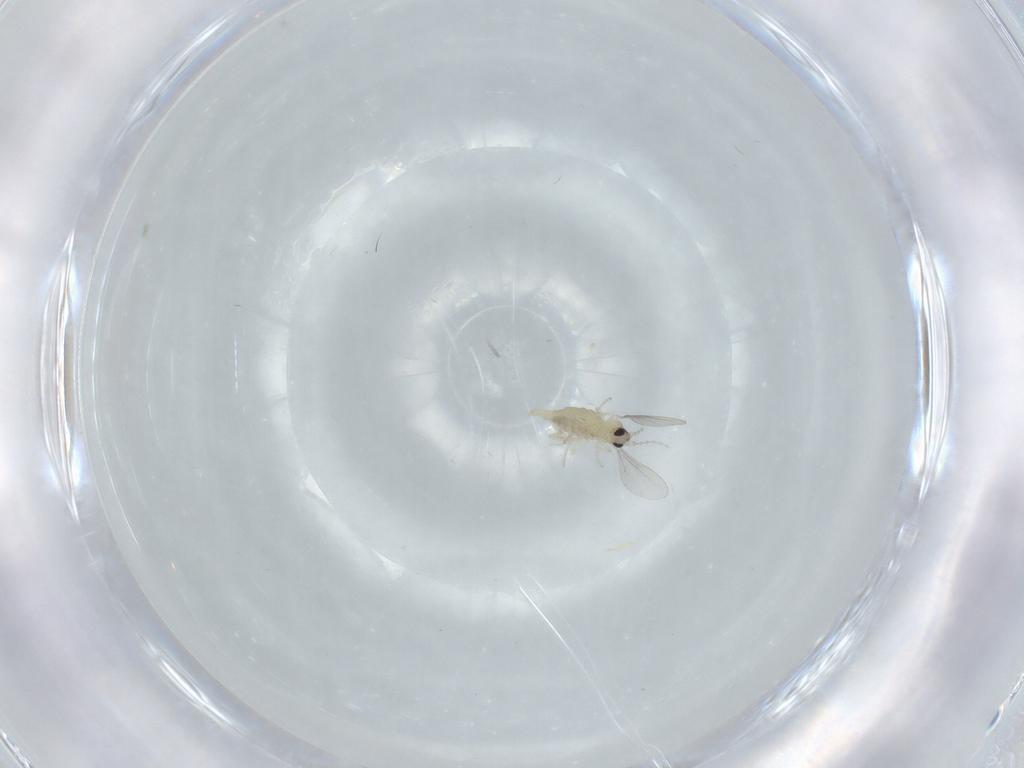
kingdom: Animalia
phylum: Arthropoda
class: Insecta
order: Diptera
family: Cecidomyiidae
